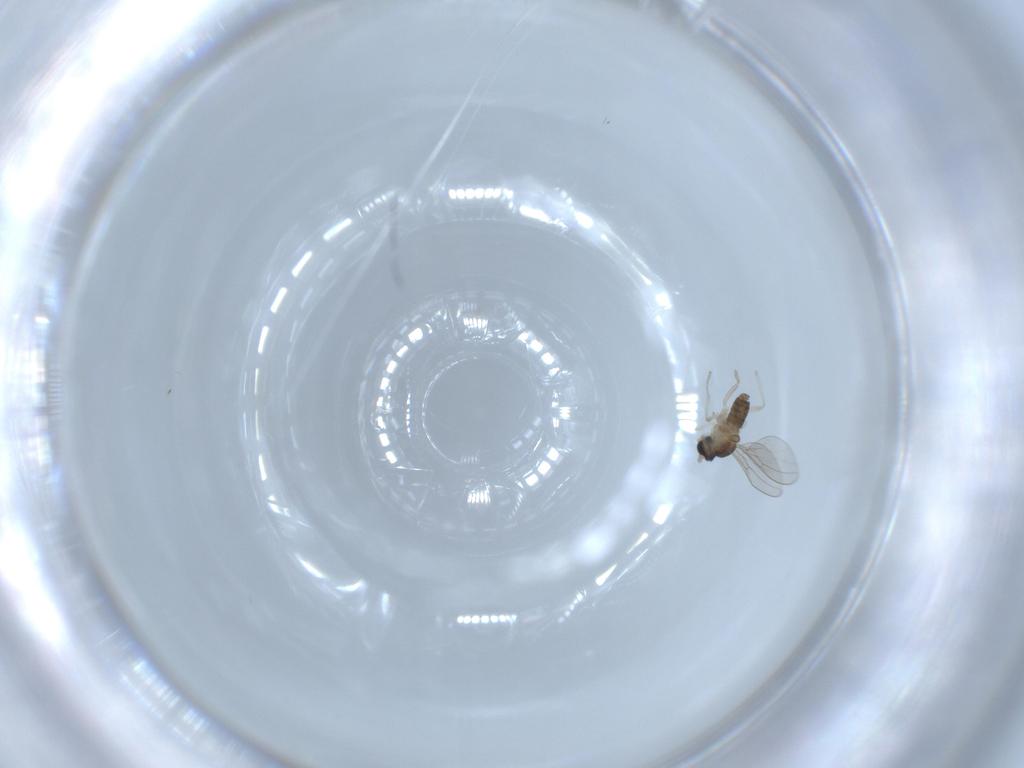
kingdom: Animalia
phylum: Arthropoda
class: Insecta
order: Diptera
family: Cecidomyiidae
